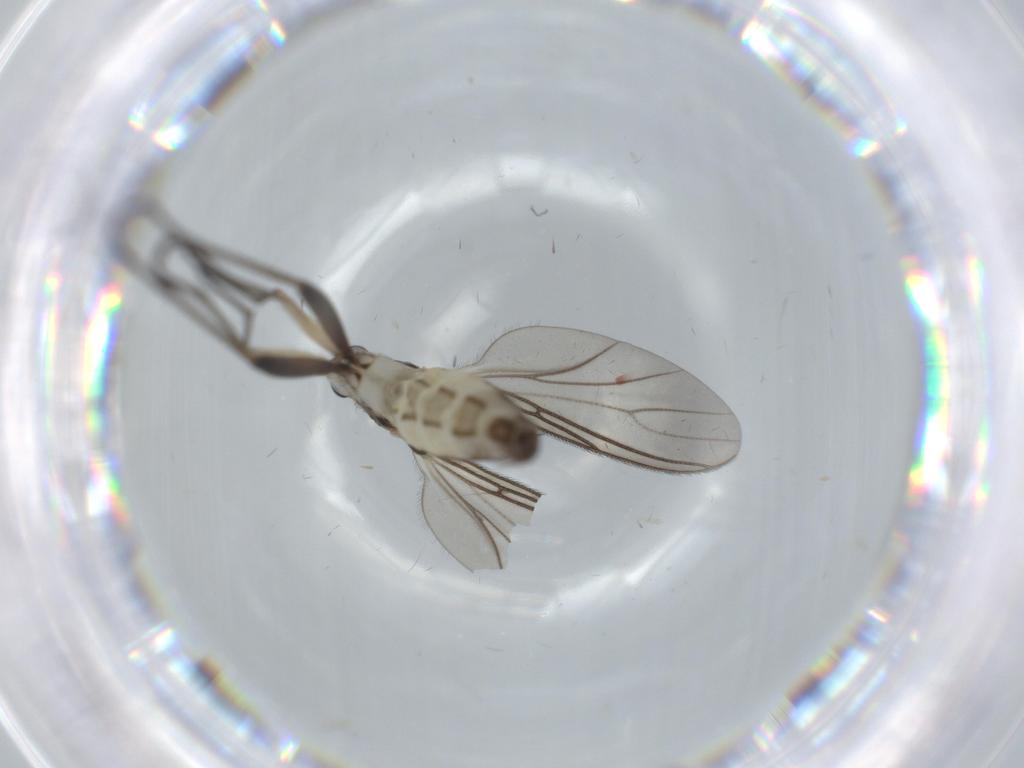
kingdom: Animalia
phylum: Arthropoda
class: Insecta
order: Diptera
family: Sciaridae
